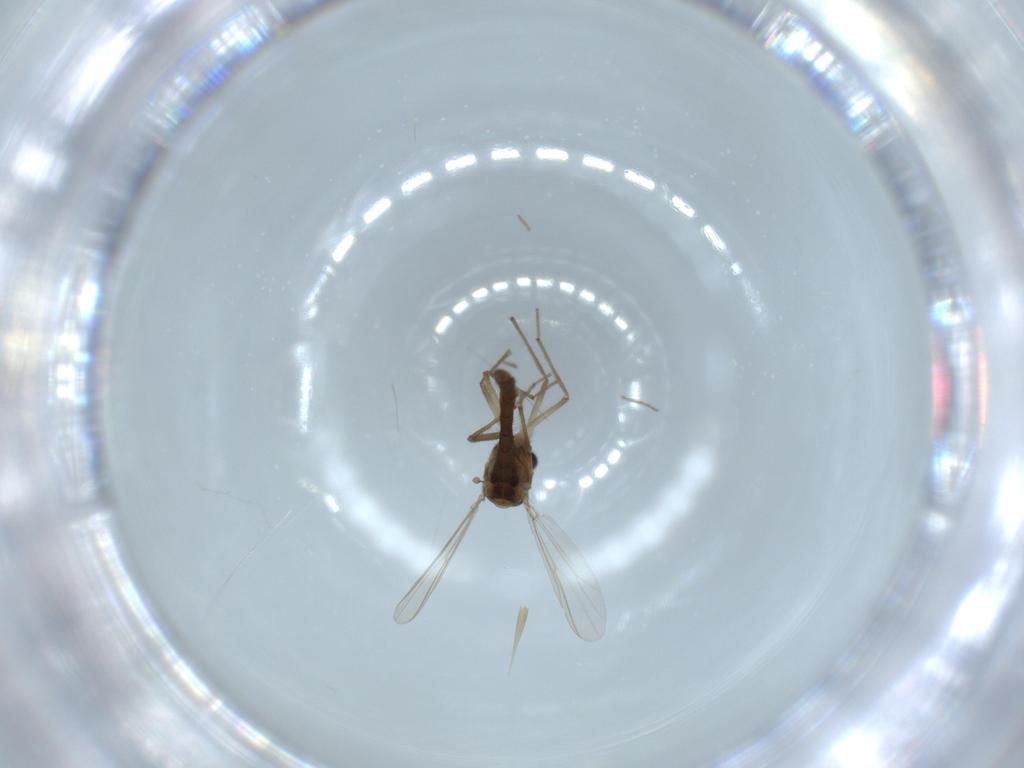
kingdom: Animalia
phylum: Arthropoda
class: Insecta
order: Diptera
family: Chironomidae
